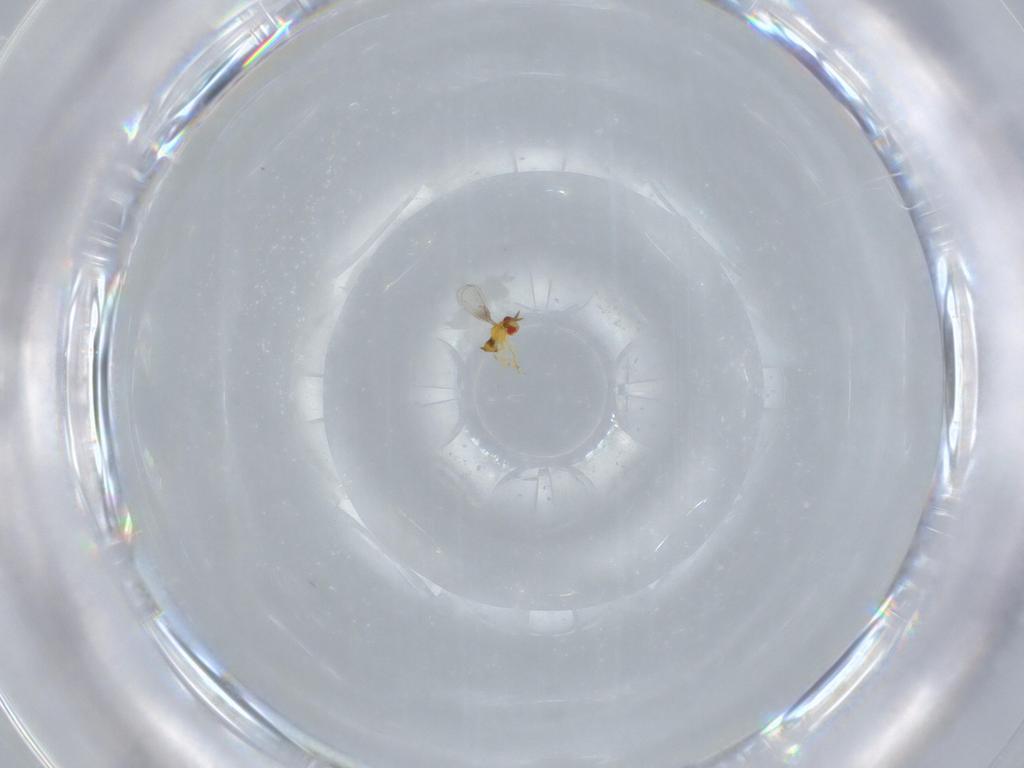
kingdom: Animalia
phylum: Arthropoda
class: Insecta
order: Hymenoptera
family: Trichogrammatidae
